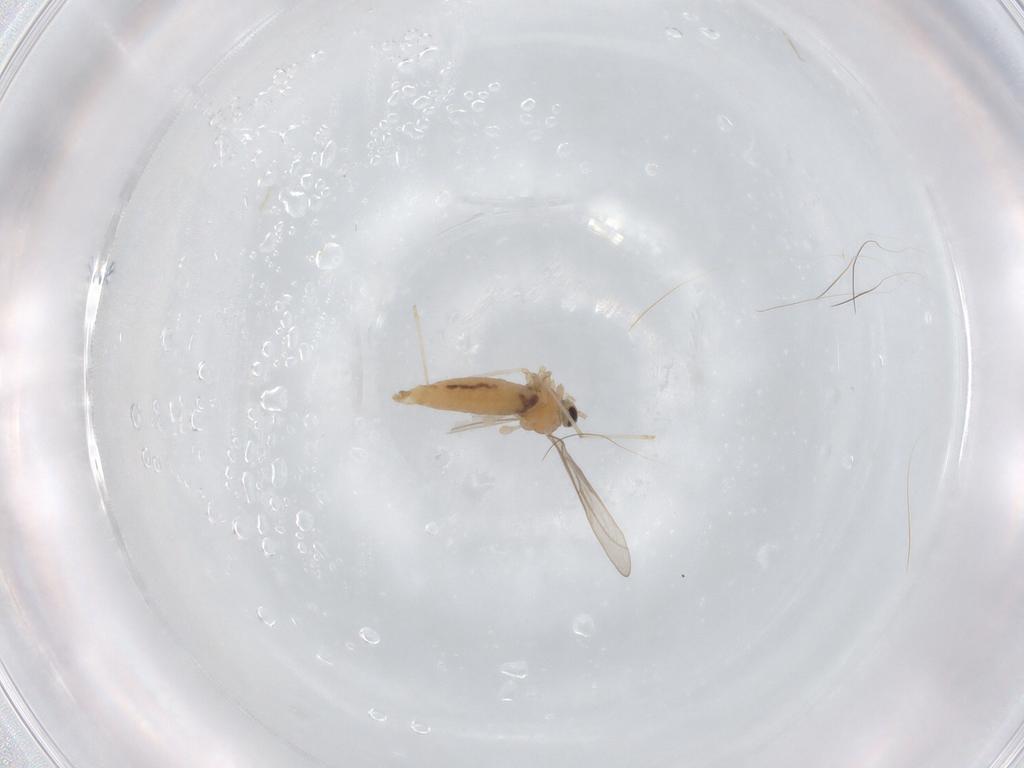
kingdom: Animalia
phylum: Arthropoda
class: Insecta
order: Diptera
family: Cecidomyiidae
